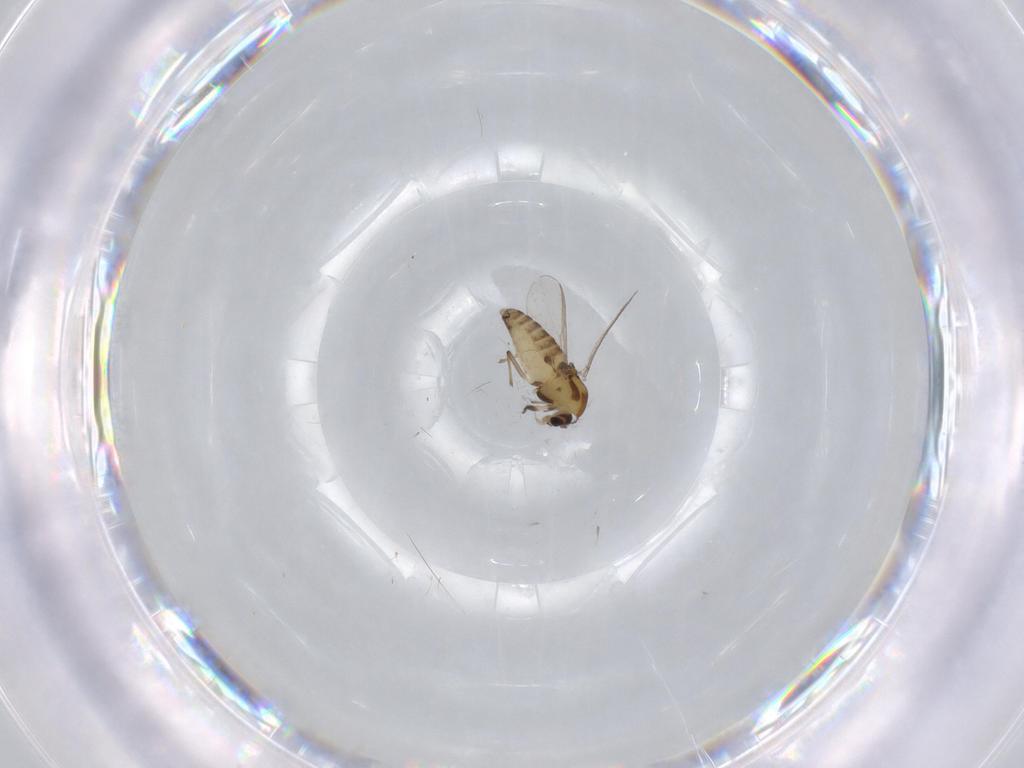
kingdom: Animalia
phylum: Arthropoda
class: Insecta
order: Diptera
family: Chironomidae
